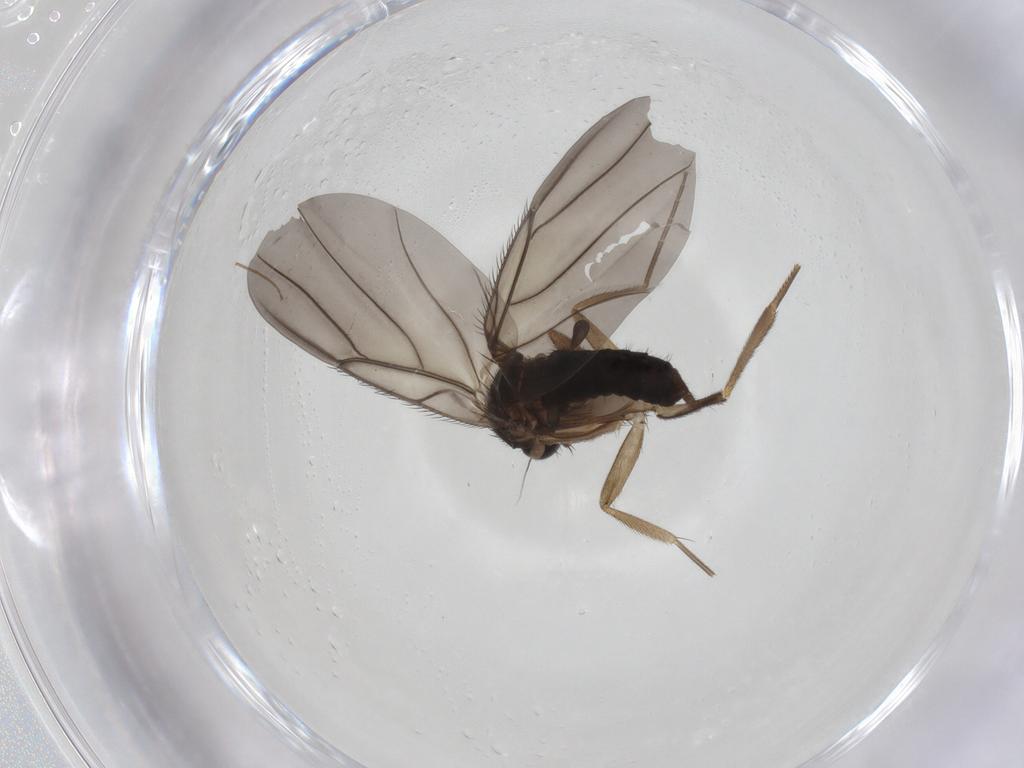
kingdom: Animalia
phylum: Arthropoda
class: Insecta
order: Diptera
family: Phoridae
